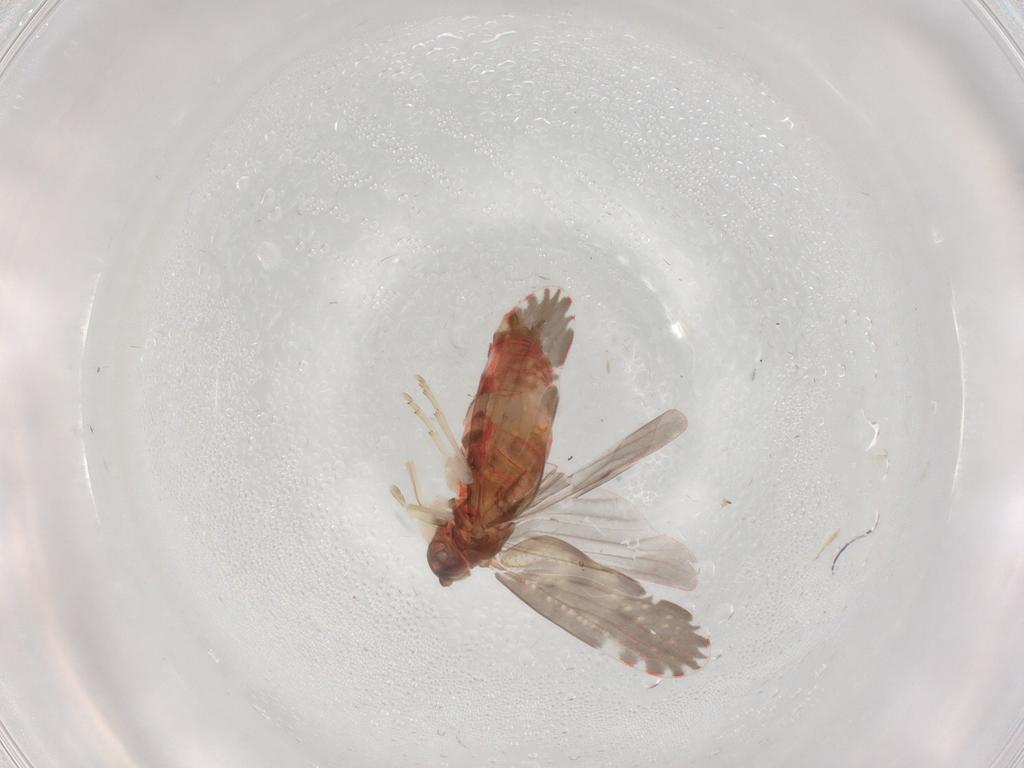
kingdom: Animalia
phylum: Arthropoda
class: Insecta
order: Hemiptera
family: Derbidae
